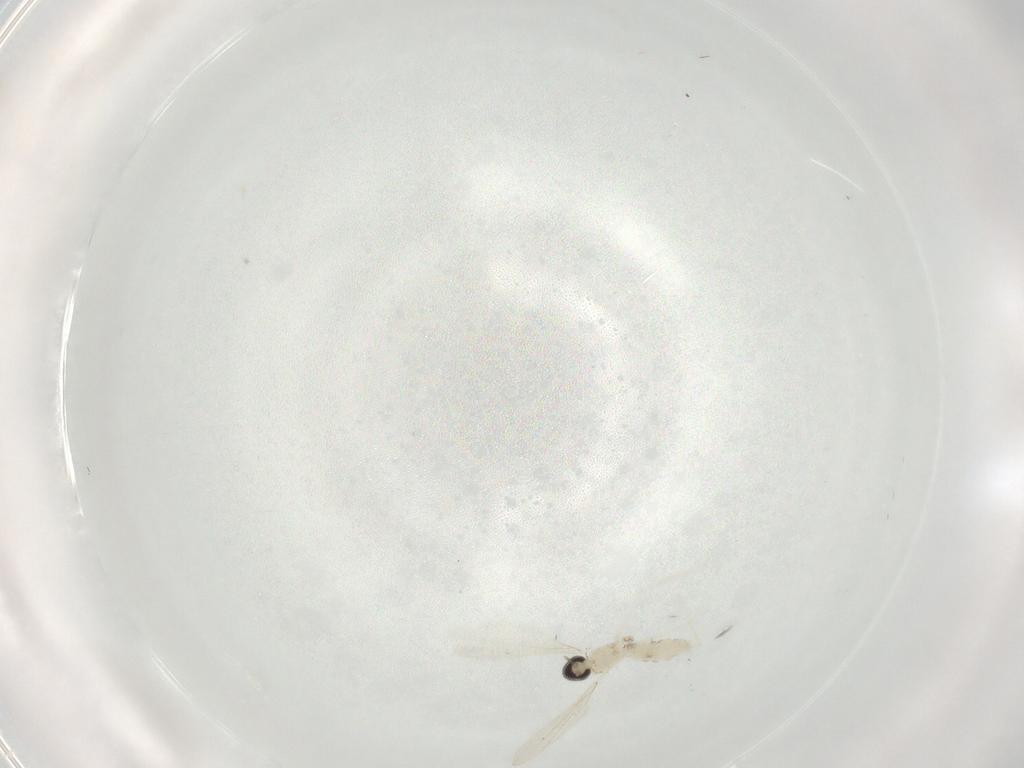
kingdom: Animalia
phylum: Arthropoda
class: Insecta
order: Diptera
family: Cecidomyiidae
